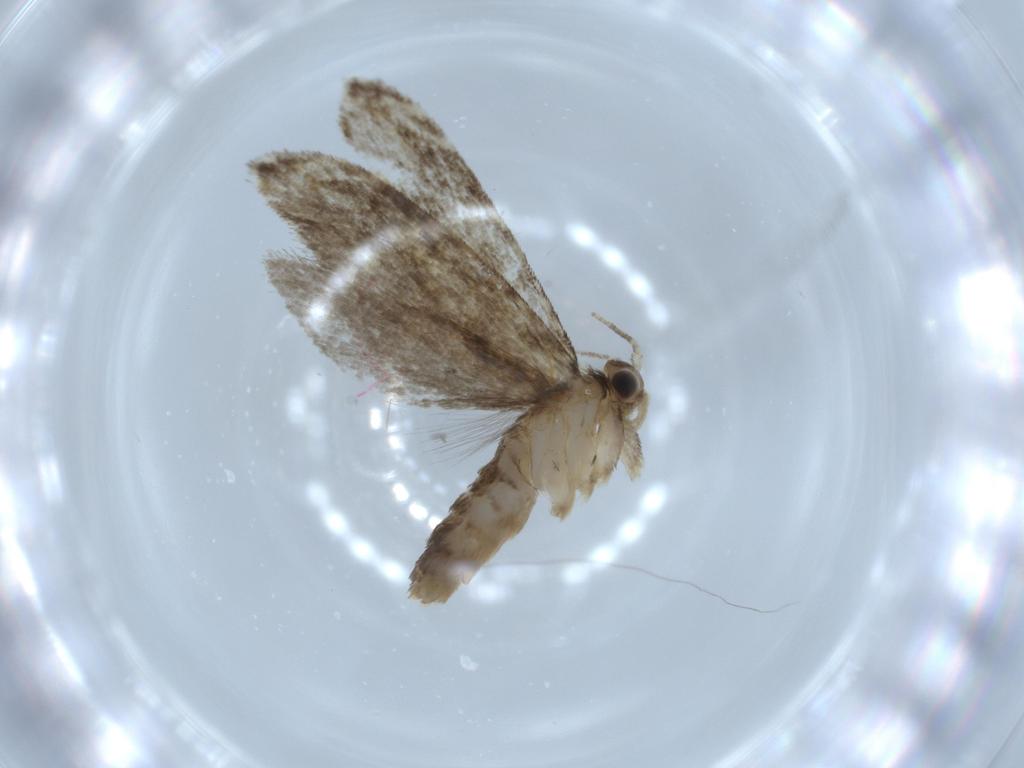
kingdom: Animalia
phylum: Arthropoda
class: Insecta
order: Lepidoptera
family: Tineidae
